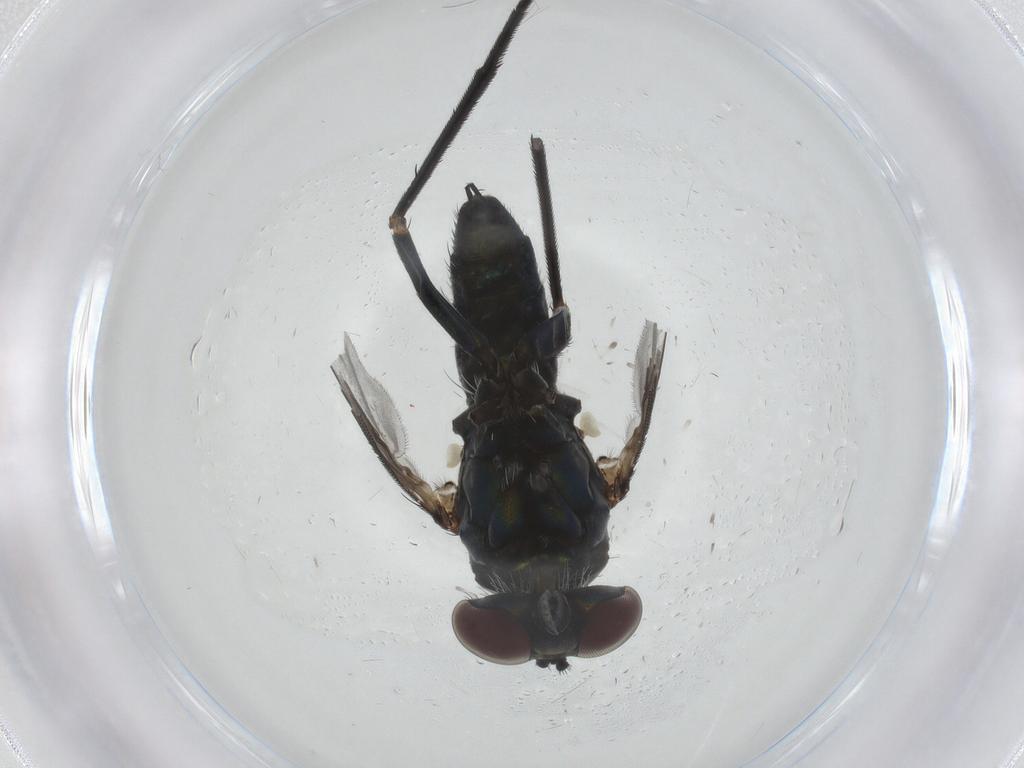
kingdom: Animalia
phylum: Arthropoda
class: Insecta
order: Diptera
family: Dolichopodidae
